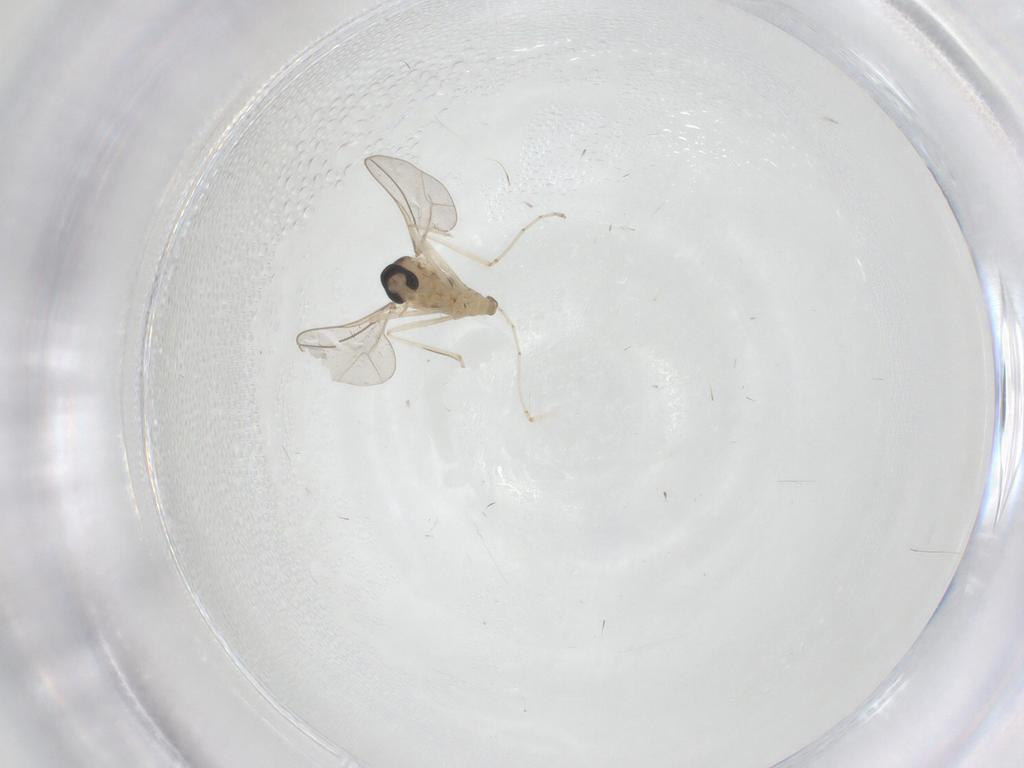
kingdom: Animalia
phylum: Arthropoda
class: Insecta
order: Diptera
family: Cecidomyiidae
